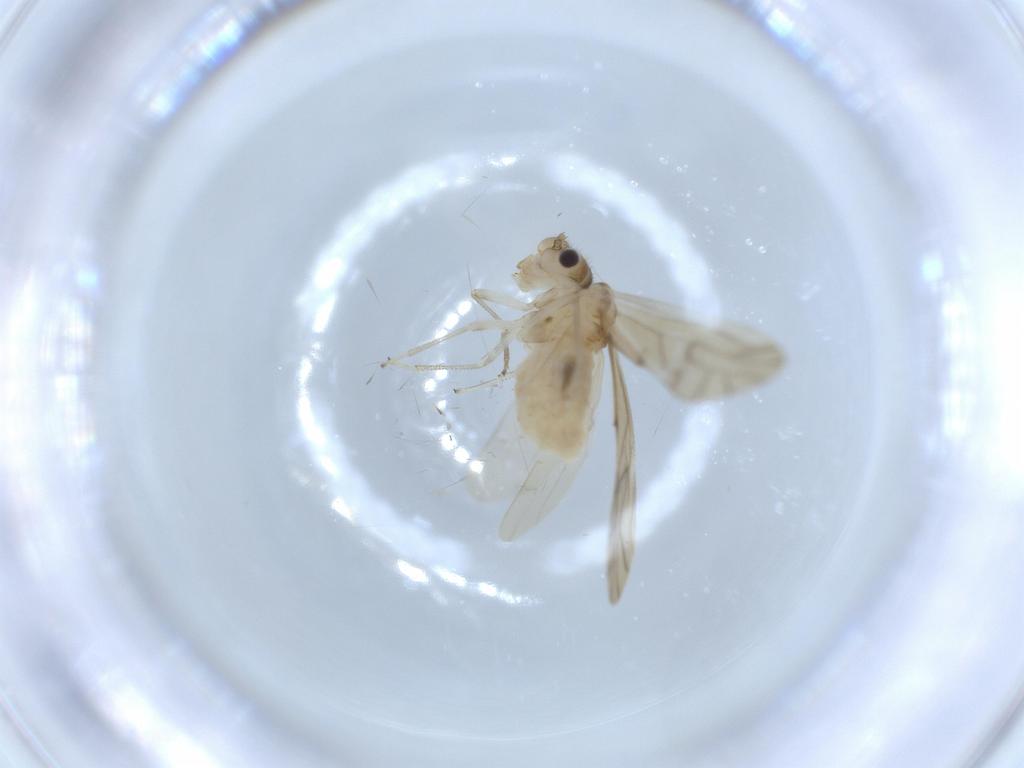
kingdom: Animalia
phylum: Arthropoda
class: Insecta
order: Psocodea
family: Caeciliusidae
